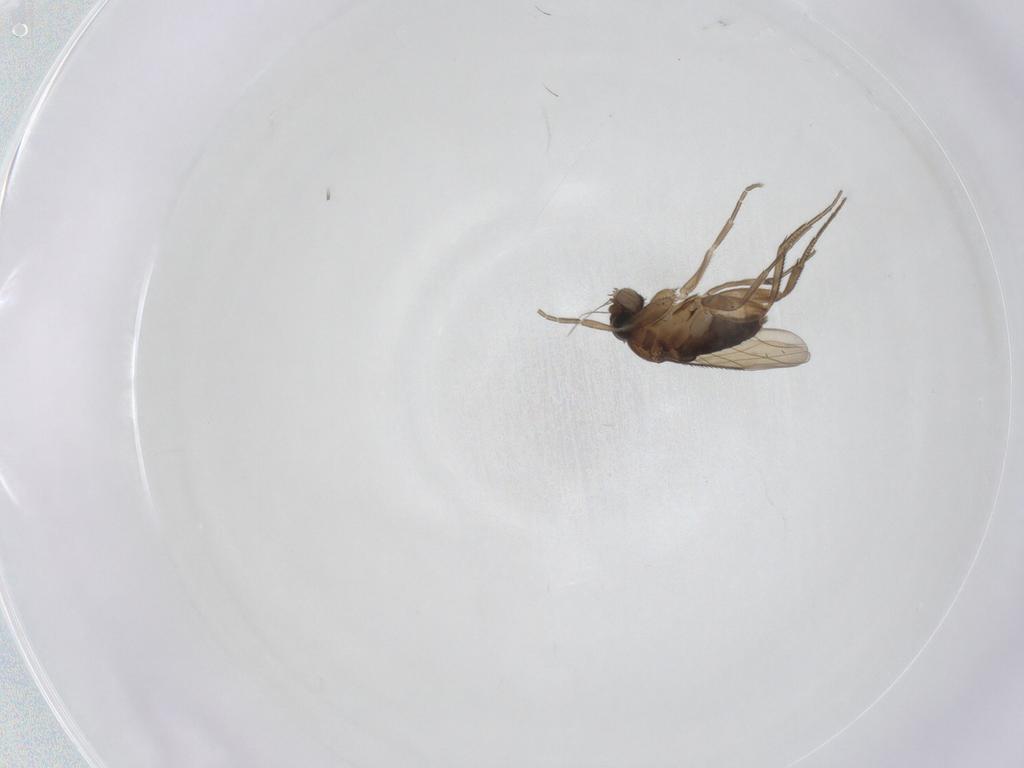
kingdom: Animalia
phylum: Arthropoda
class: Insecta
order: Diptera
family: Phoridae
